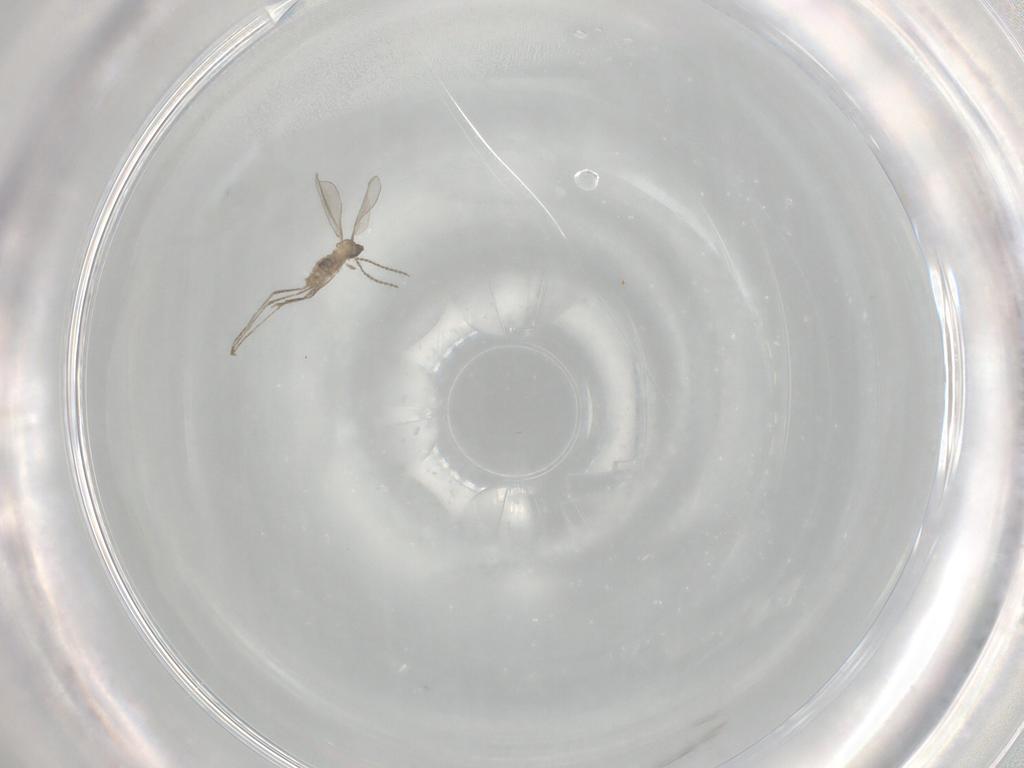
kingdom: Animalia
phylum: Arthropoda
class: Insecta
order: Diptera
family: Cecidomyiidae
